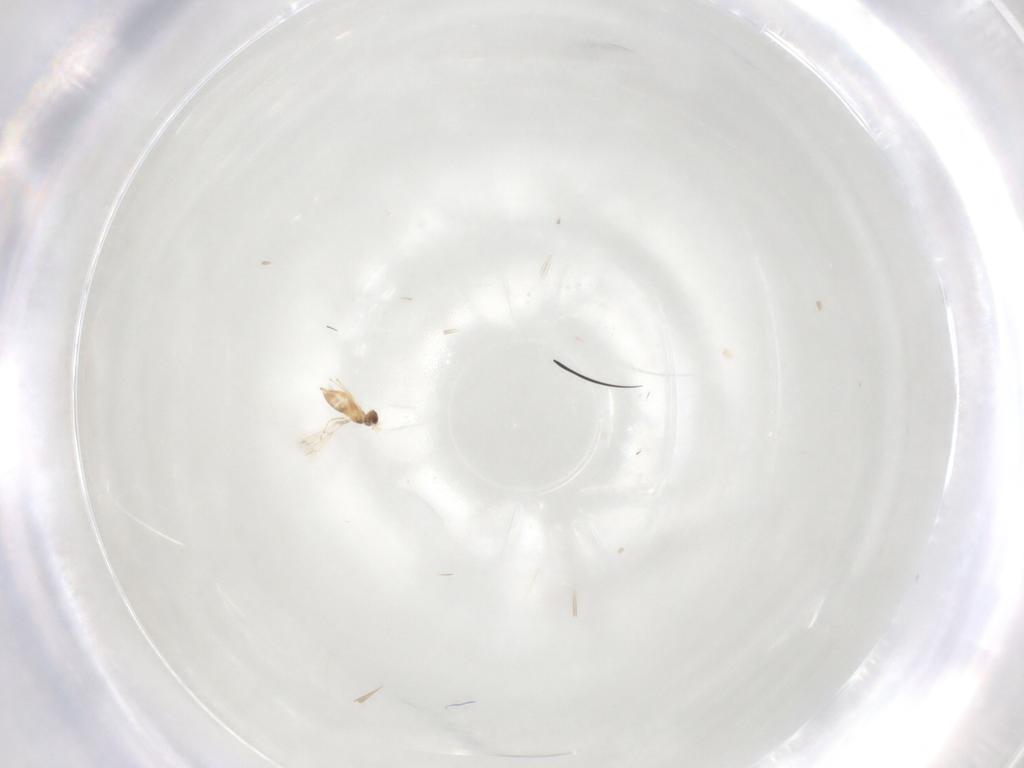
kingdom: Animalia
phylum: Arthropoda
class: Insecta
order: Hymenoptera
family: Mymaridae
